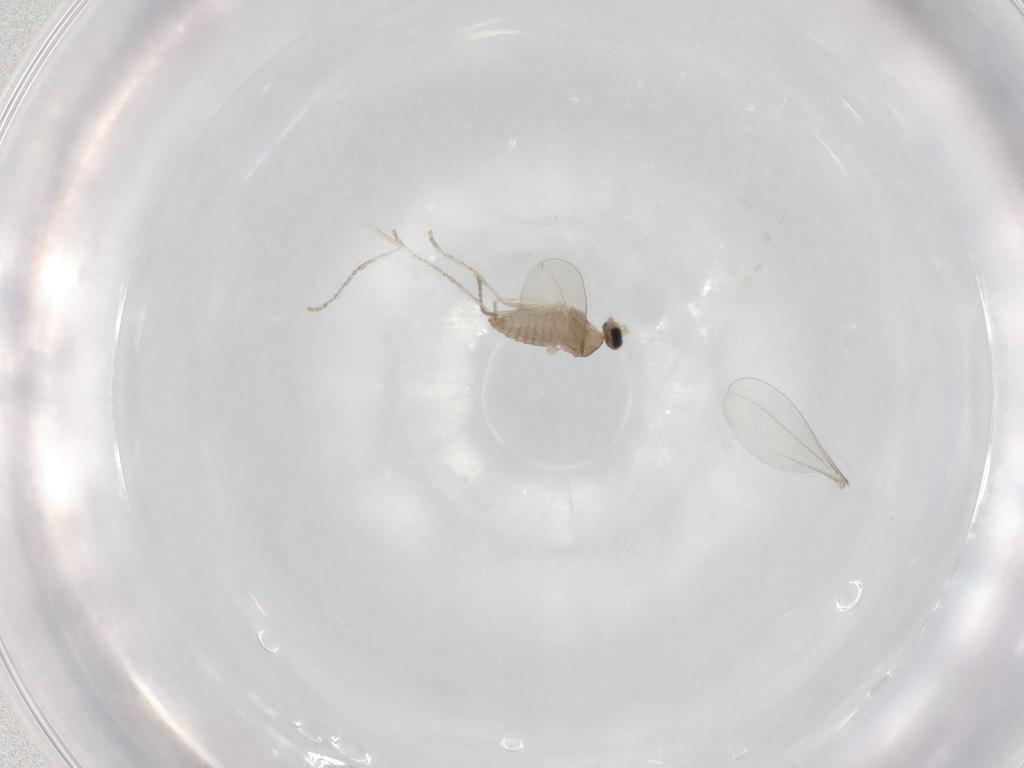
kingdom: Animalia
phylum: Arthropoda
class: Insecta
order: Diptera
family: Cecidomyiidae
